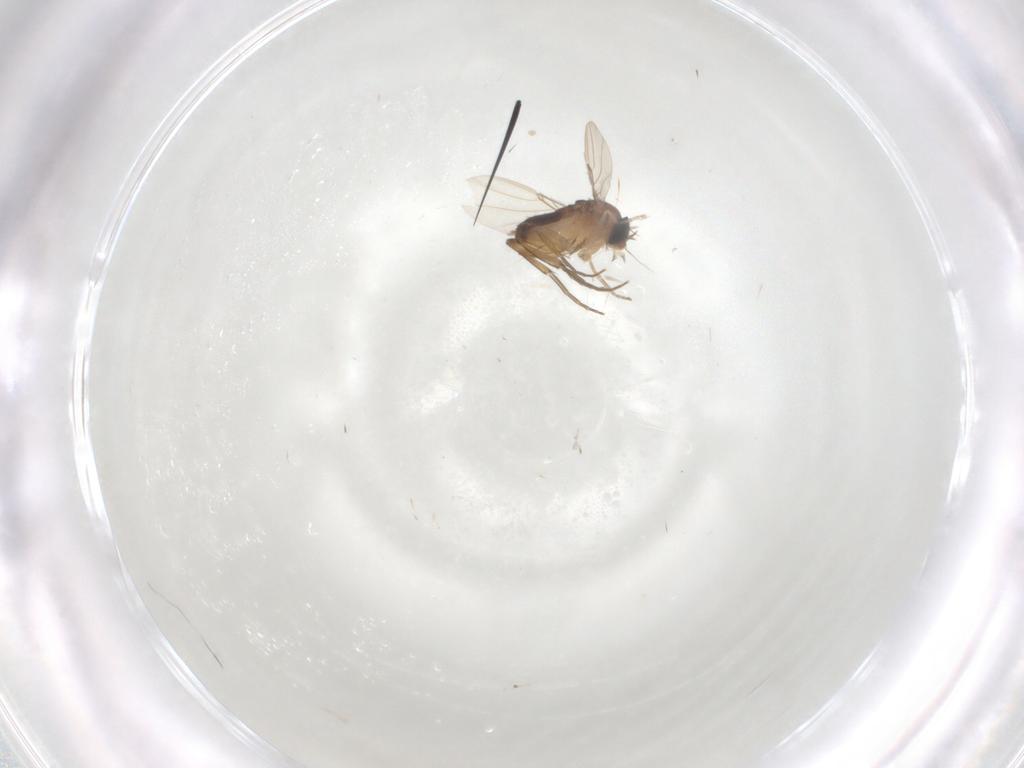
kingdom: Animalia
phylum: Arthropoda
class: Insecta
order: Diptera
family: Phoridae
